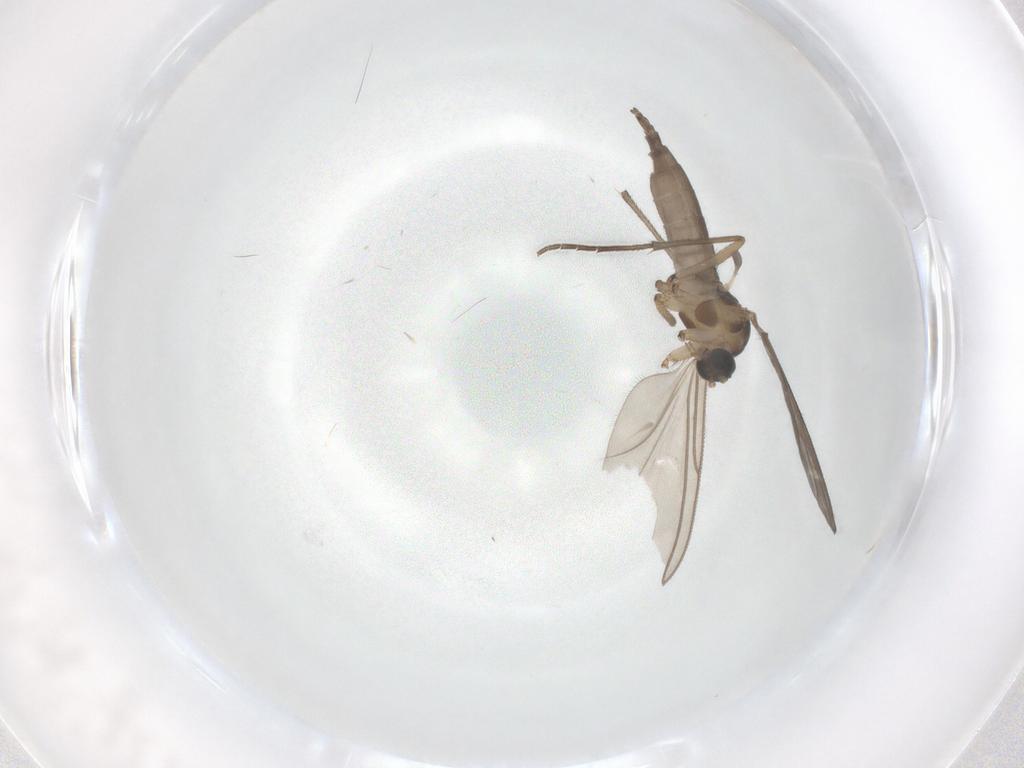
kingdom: Animalia
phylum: Arthropoda
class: Insecta
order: Diptera
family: Sciaridae
